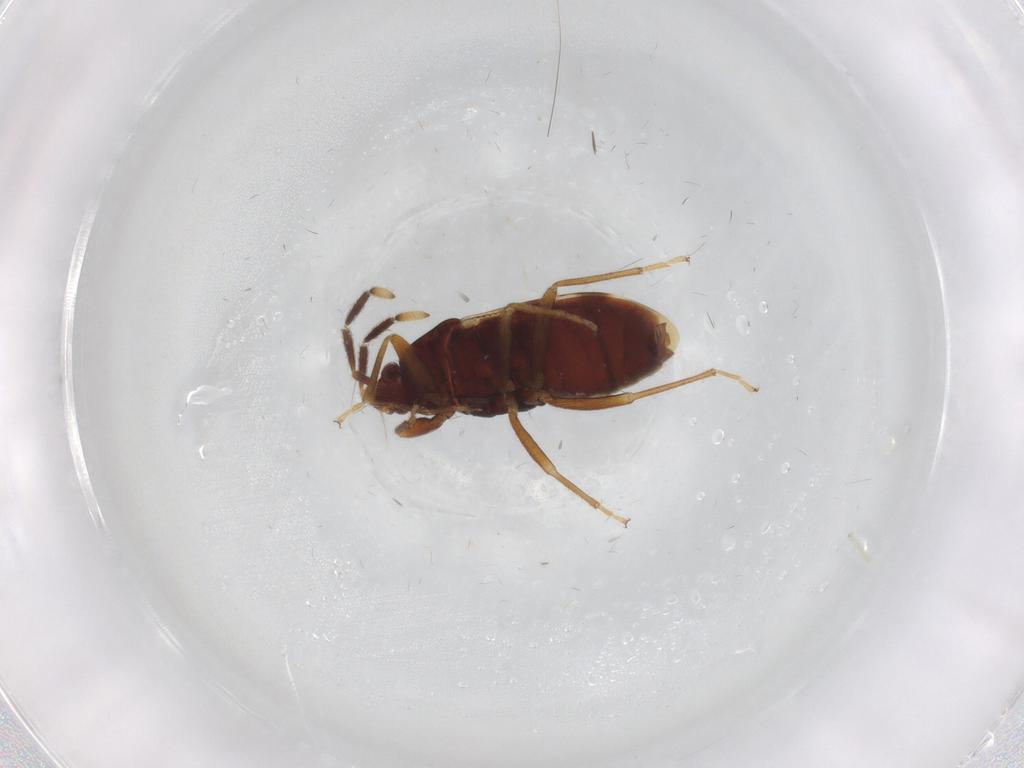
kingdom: Animalia
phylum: Arthropoda
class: Insecta
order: Hemiptera
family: Rhyparochromidae
